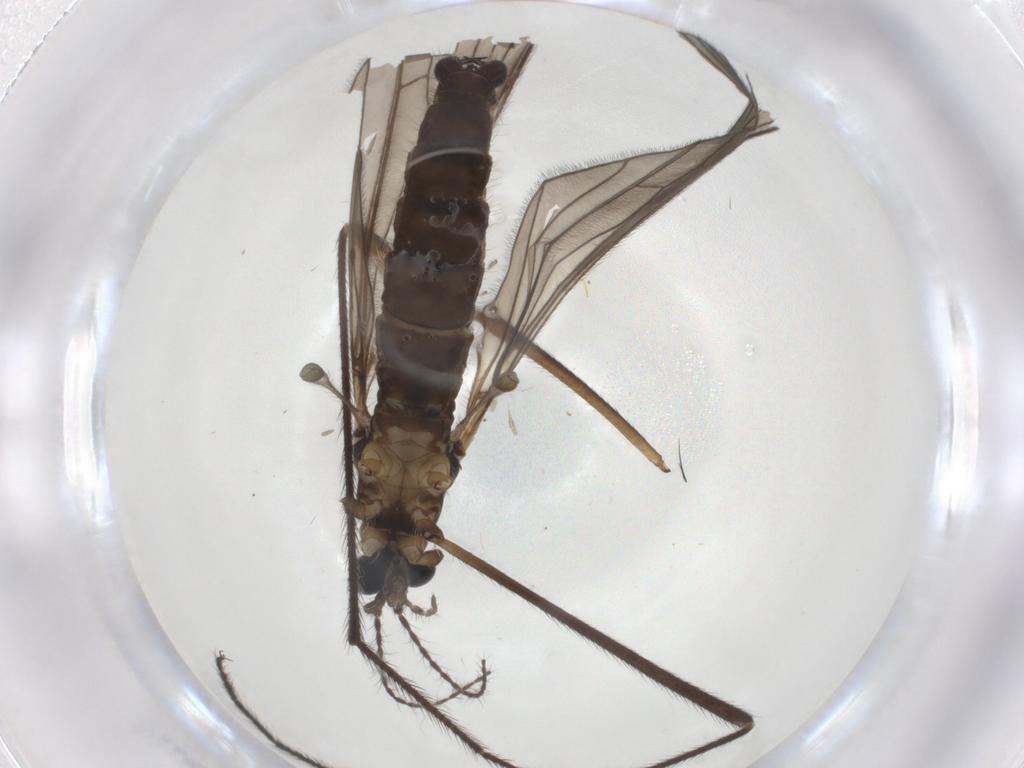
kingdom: Animalia
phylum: Arthropoda
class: Insecta
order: Diptera
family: Limoniidae
